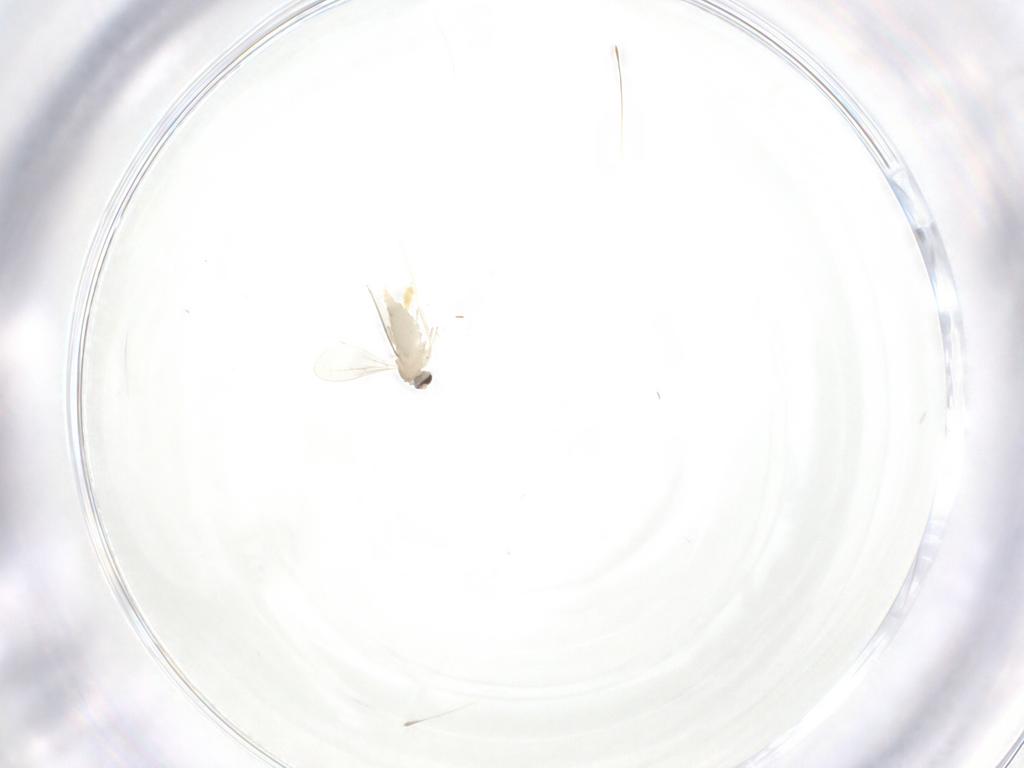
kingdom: Animalia
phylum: Arthropoda
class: Insecta
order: Diptera
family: Cecidomyiidae
